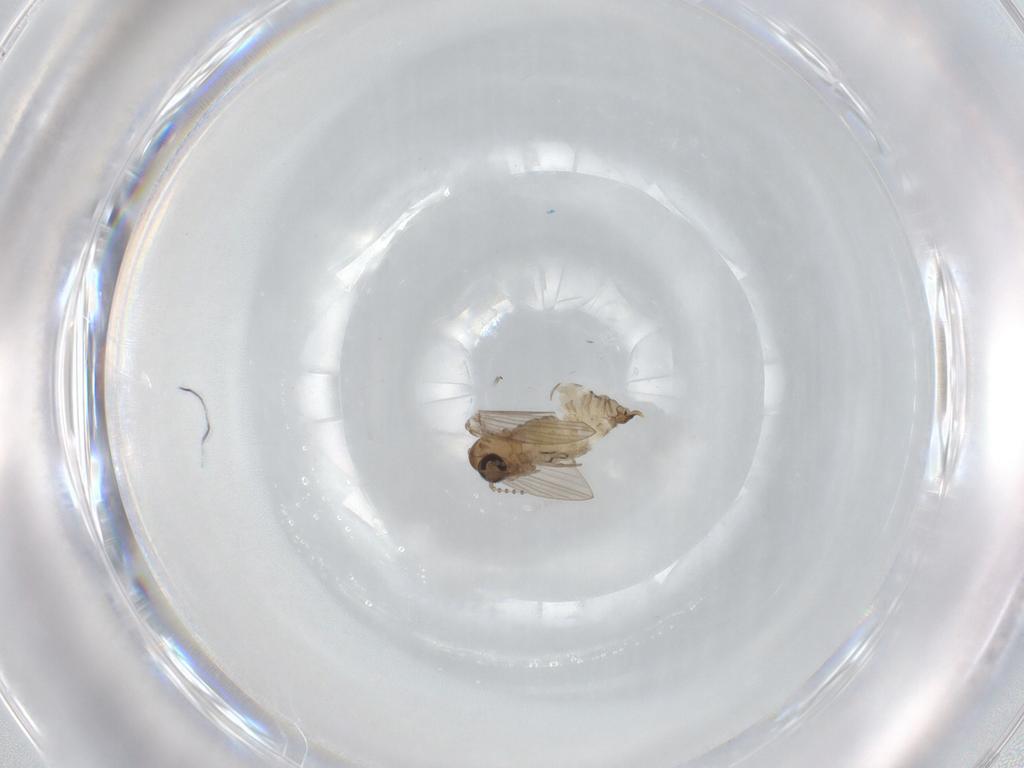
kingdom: Animalia
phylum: Arthropoda
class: Insecta
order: Diptera
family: Psychodidae
